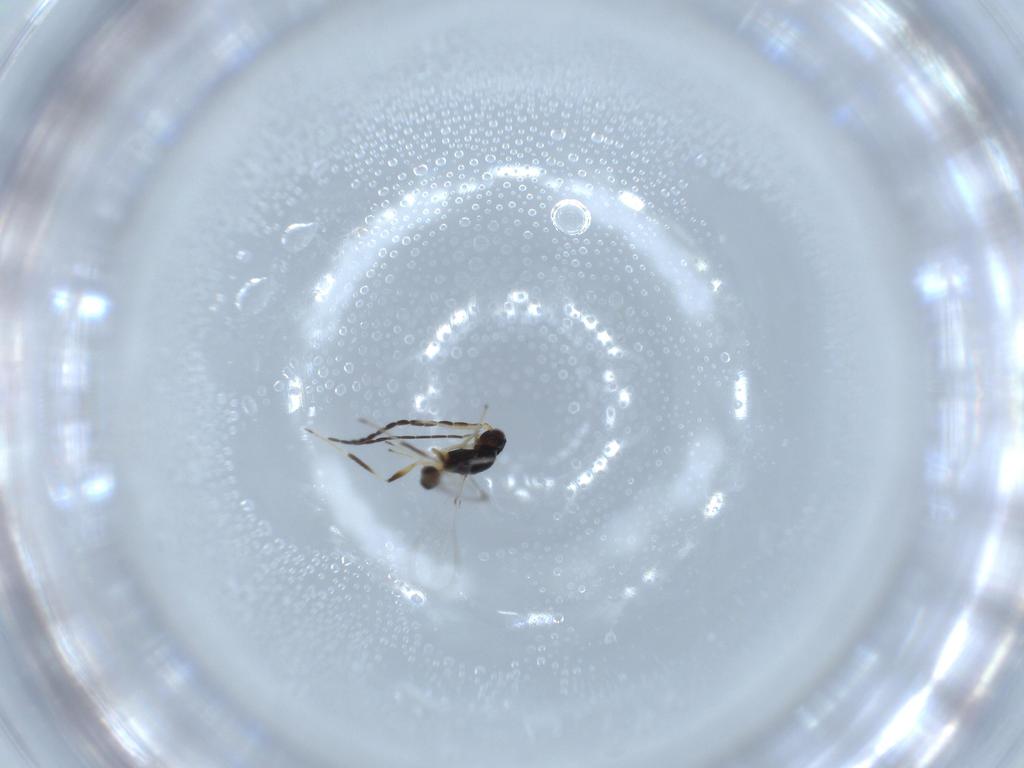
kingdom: Animalia
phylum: Arthropoda
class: Insecta
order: Hymenoptera
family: Mymaridae
